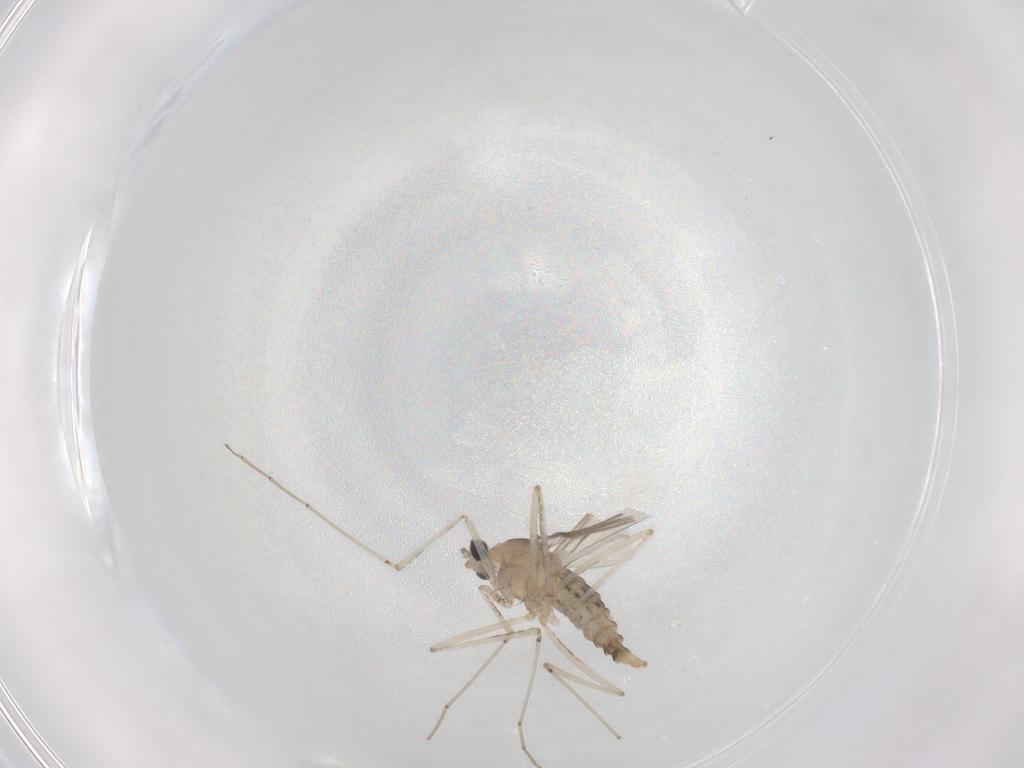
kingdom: Animalia
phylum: Arthropoda
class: Insecta
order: Diptera
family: Cecidomyiidae
